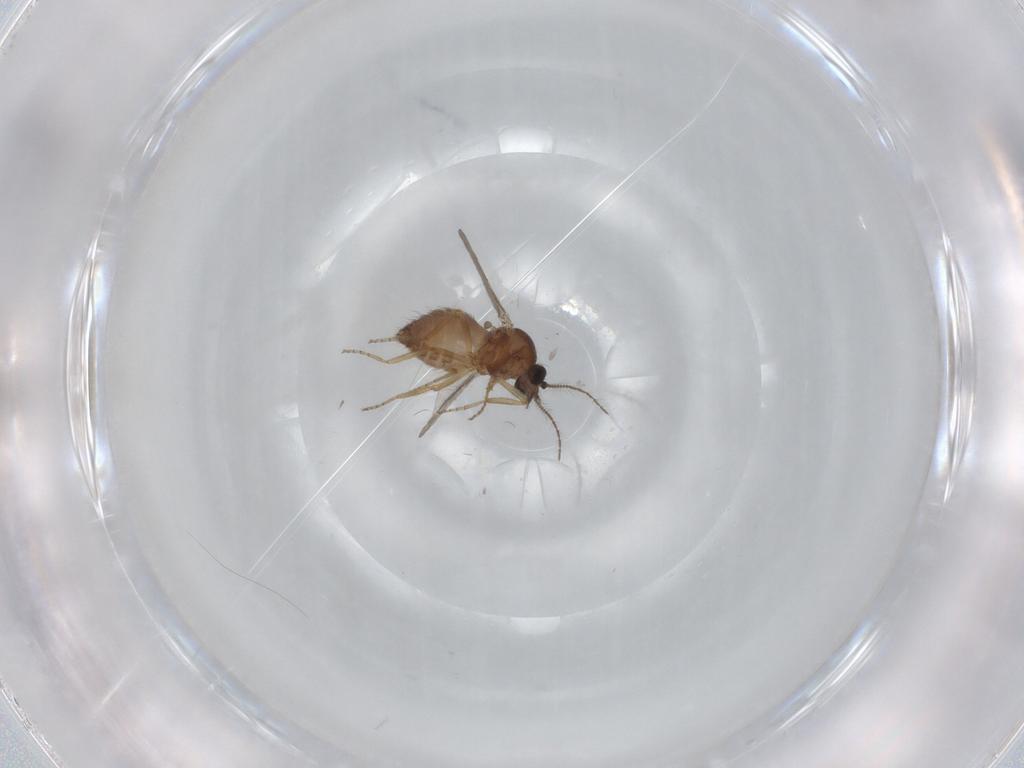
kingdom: Animalia
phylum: Arthropoda
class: Insecta
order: Diptera
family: Ceratopogonidae
